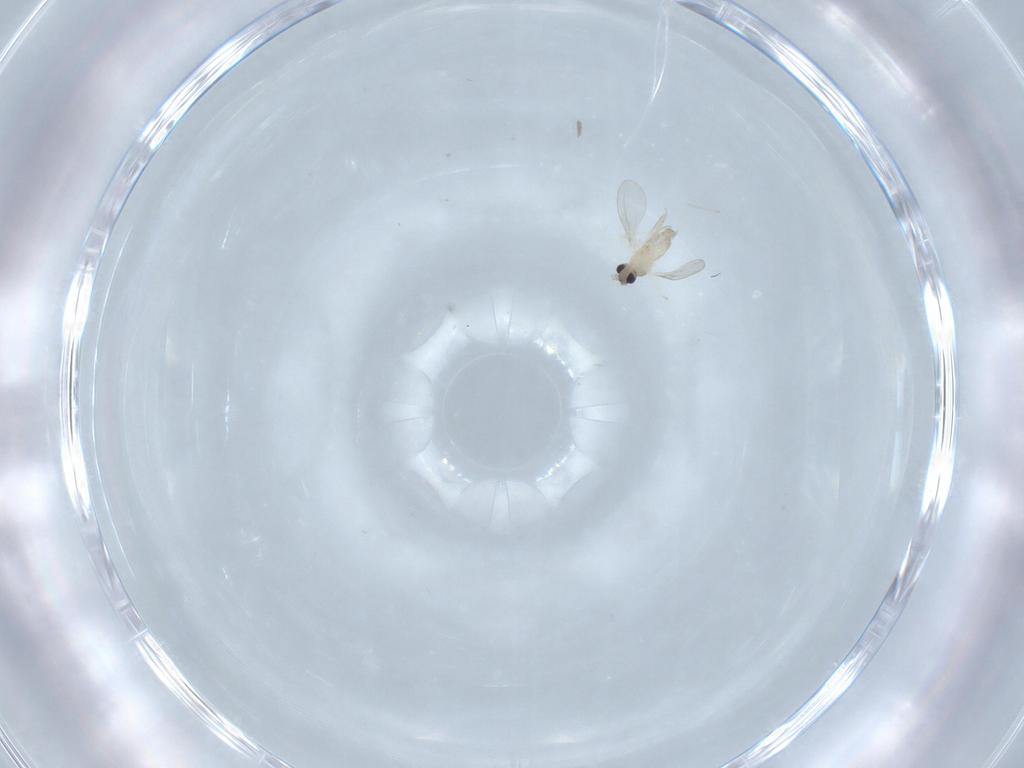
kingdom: Animalia
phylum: Arthropoda
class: Insecta
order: Diptera
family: Cecidomyiidae
